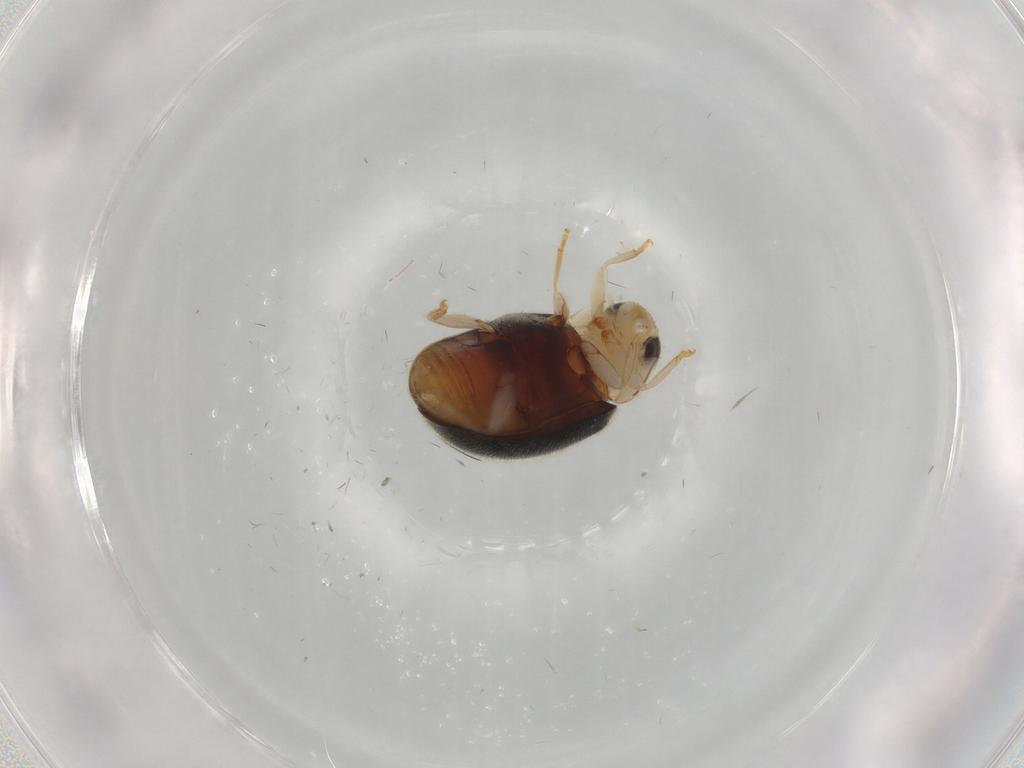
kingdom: Animalia
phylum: Arthropoda
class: Insecta
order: Coleoptera
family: Coccinellidae
